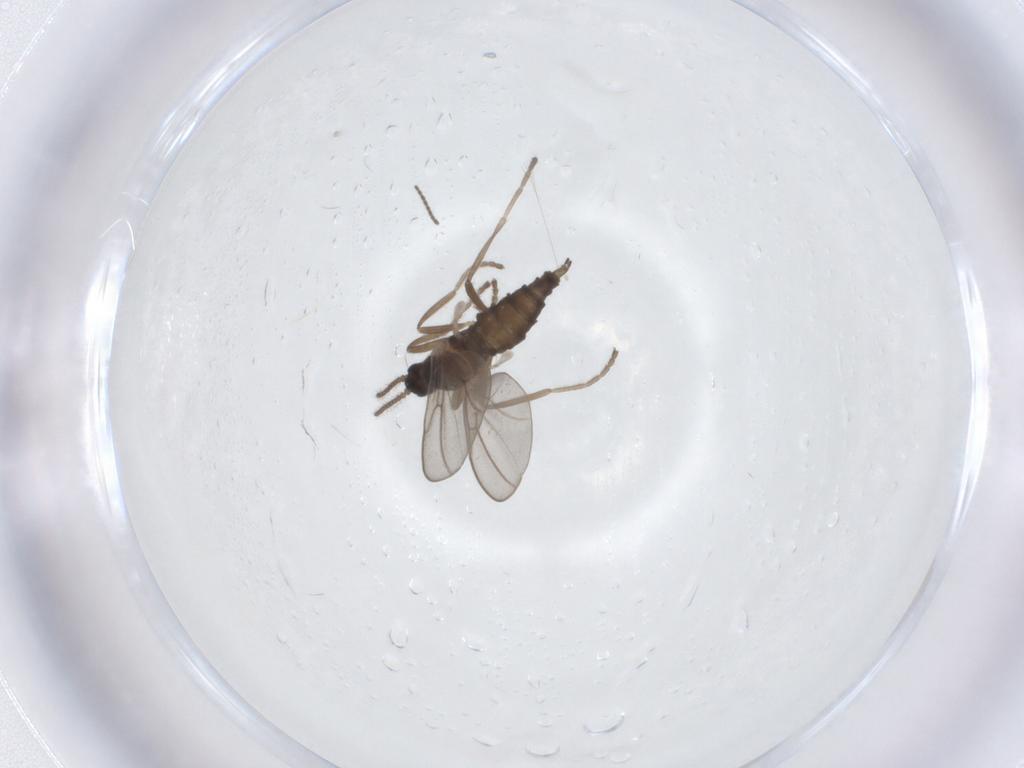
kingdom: Animalia
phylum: Arthropoda
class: Insecta
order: Diptera
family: Cecidomyiidae
